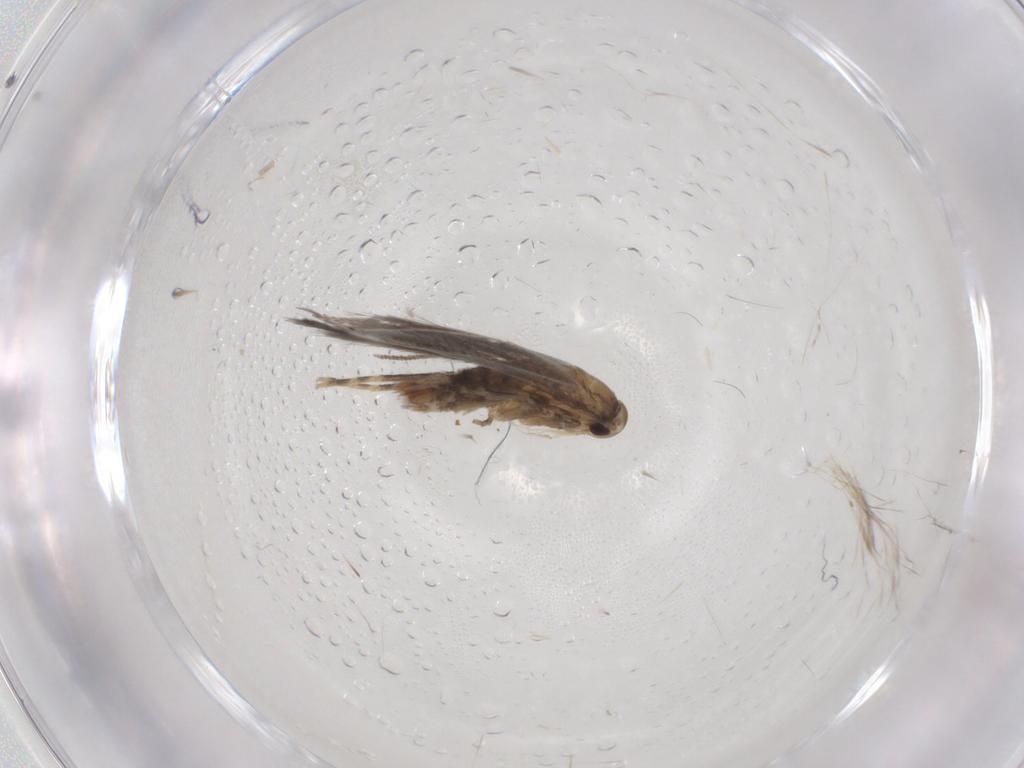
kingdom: Animalia
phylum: Arthropoda
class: Insecta
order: Lepidoptera
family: Elachistidae
